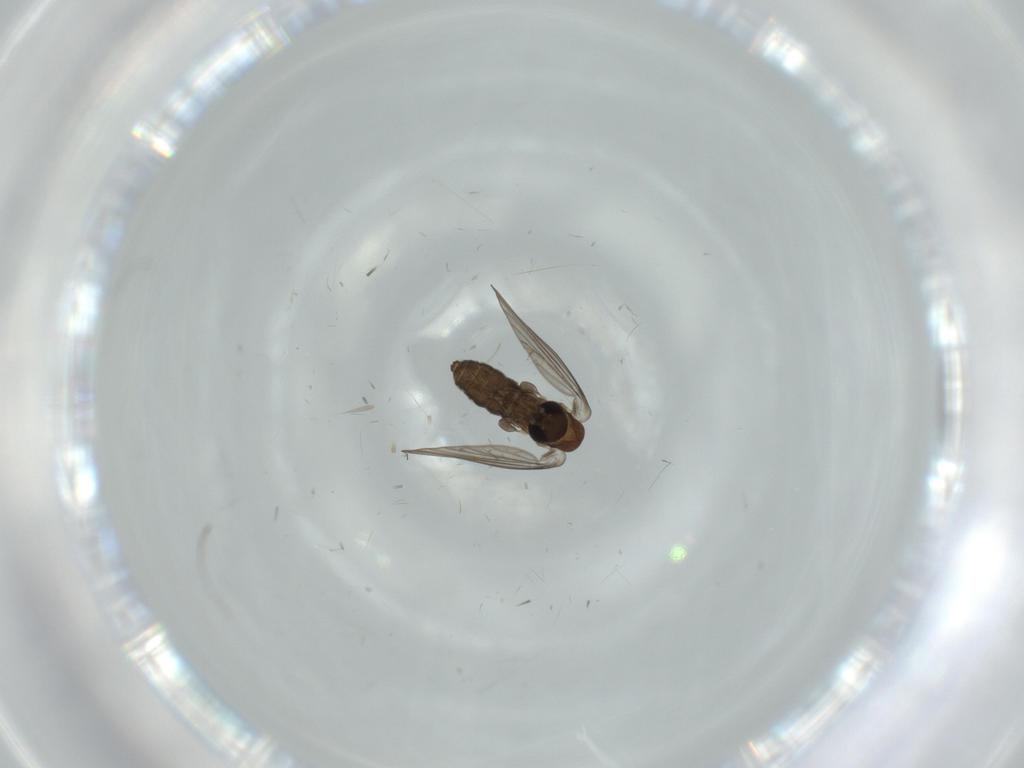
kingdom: Animalia
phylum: Arthropoda
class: Insecta
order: Diptera
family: Psychodidae
